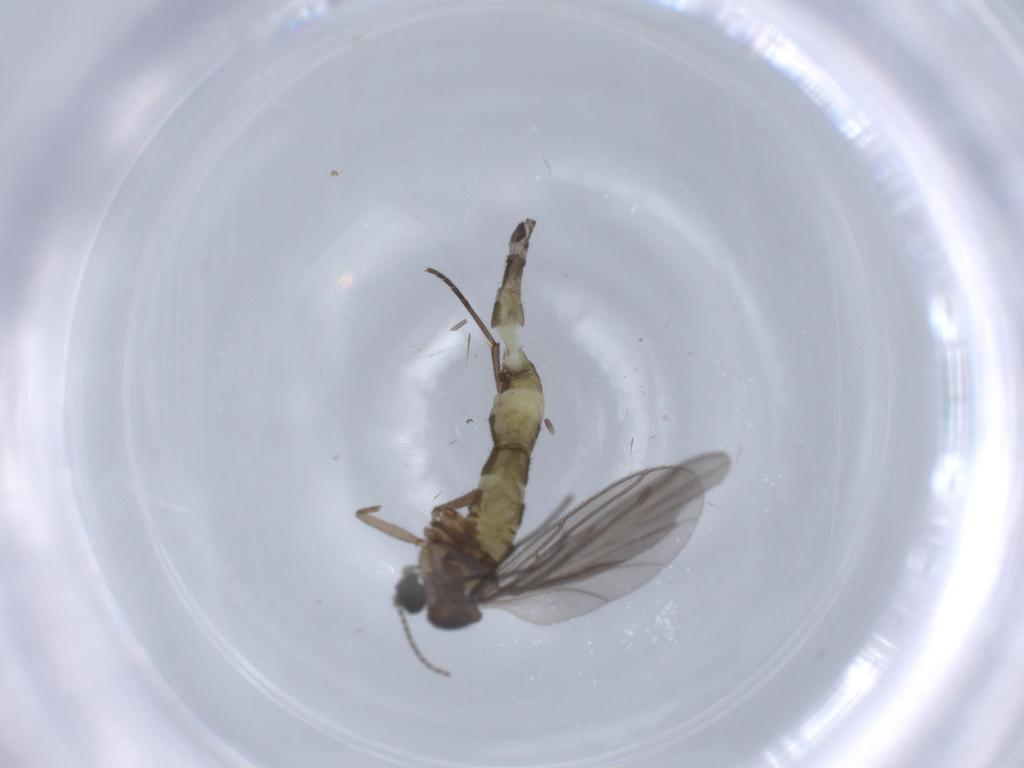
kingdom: Animalia
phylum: Arthropoda
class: Insecta
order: Diptera
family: Sciaridae
